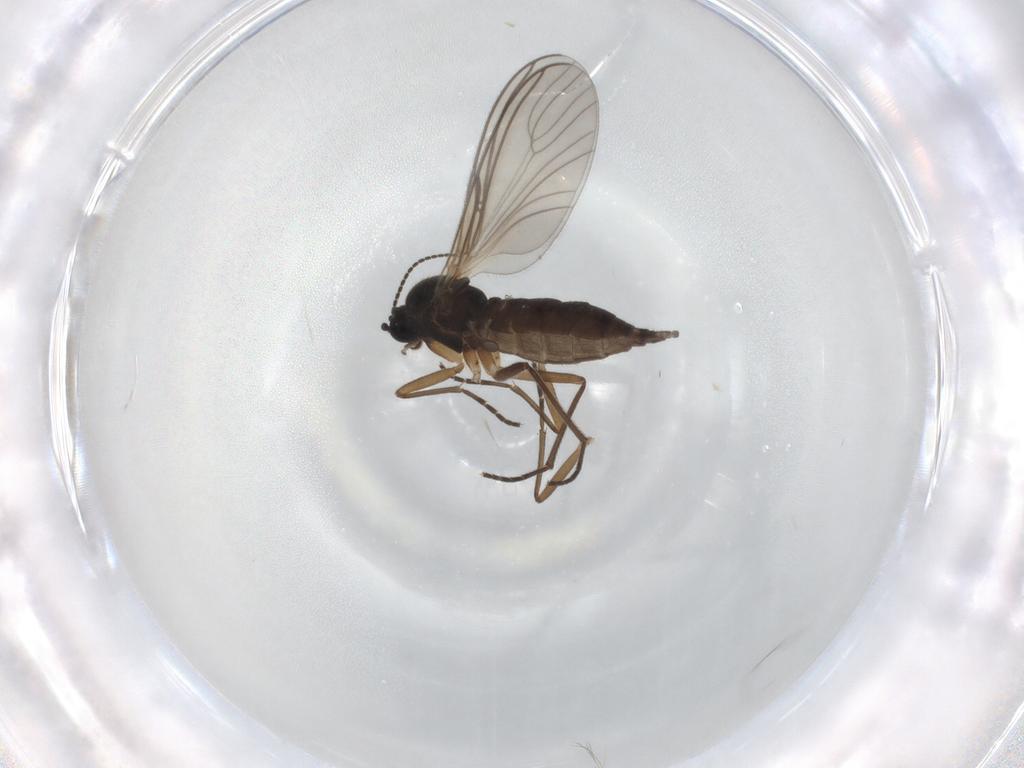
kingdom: Animalia
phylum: Arthropoda
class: Insecta
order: Diptera
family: Sciaridae
